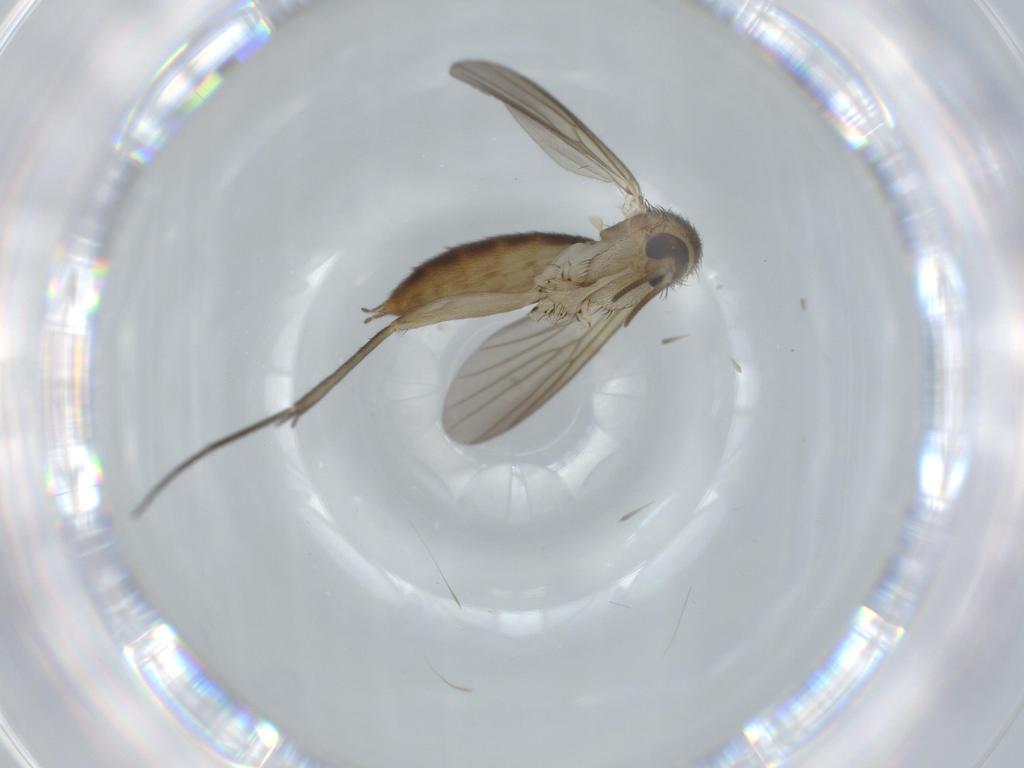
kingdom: Animalia
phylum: Arthropoda
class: Insecta
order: Diptera
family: Mycetophilidae
